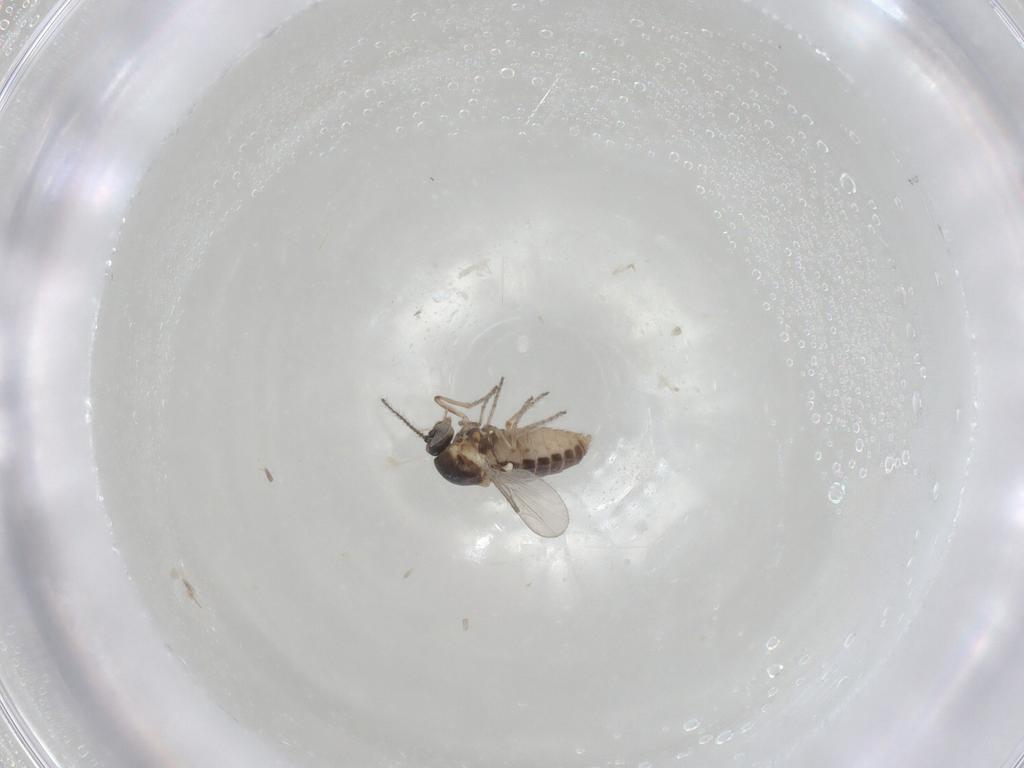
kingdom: Animalia
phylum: Arthropoda
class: Insecta
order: Diptera
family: Ceratopogonidae
